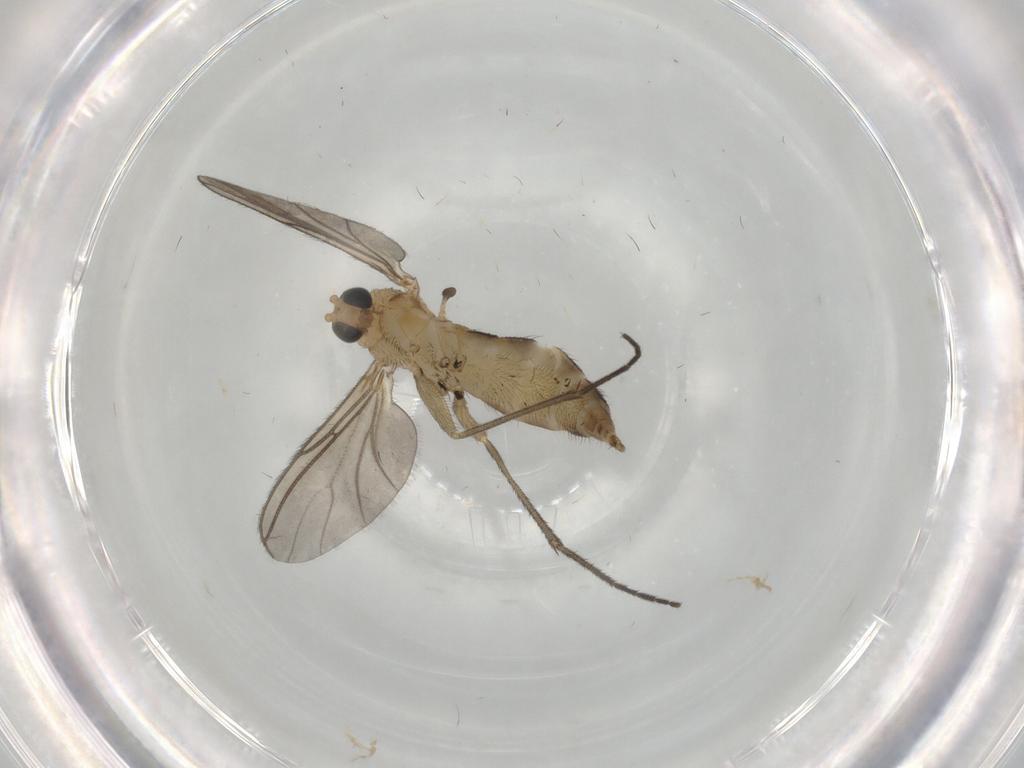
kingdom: Animalia
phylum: Arthropoda
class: Insecta
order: Diptera
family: Sciaridae
